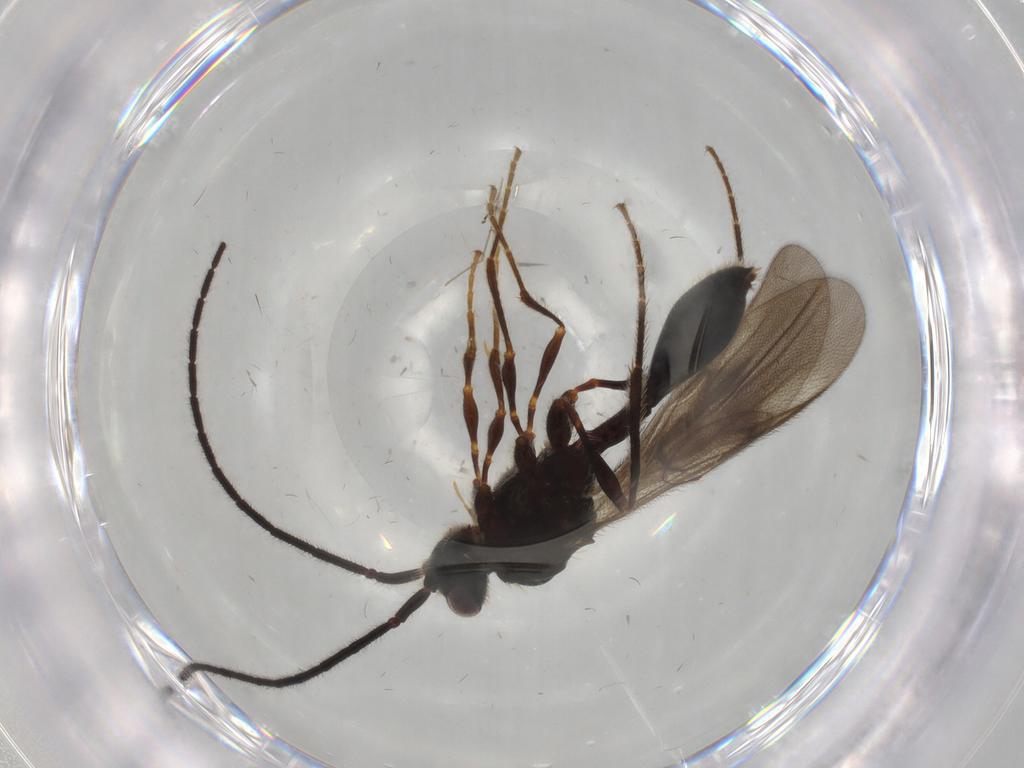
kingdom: Animalia
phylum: Arthropoda
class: Insecta
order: Hymenoptera
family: Diapriidae
